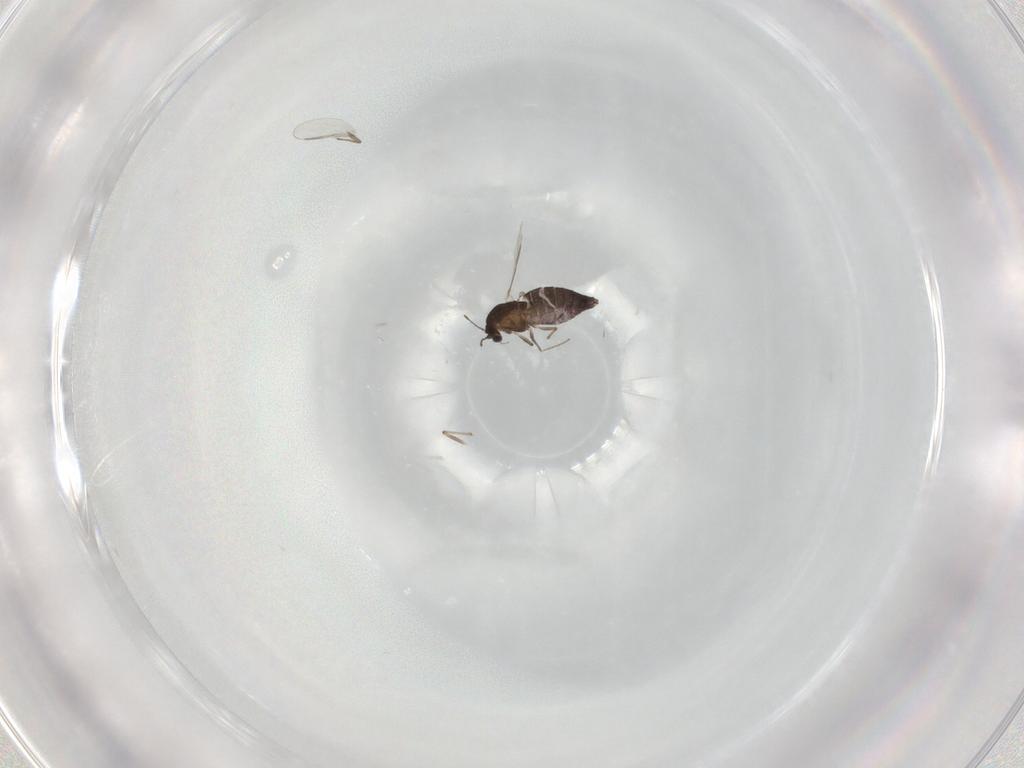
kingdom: Animalia
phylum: Arthropoda
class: Insecta
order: Diptera
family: Chironomidae
